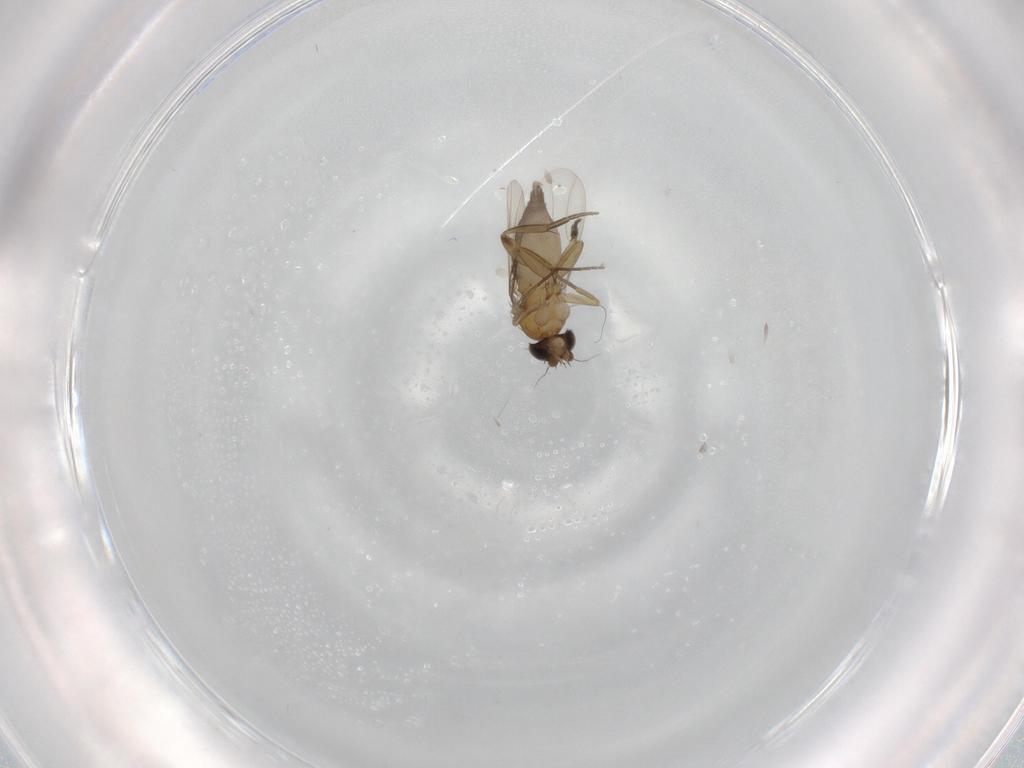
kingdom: Animalia
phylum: Arthropoda
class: Insecta
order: Diptera
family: Phoridae
